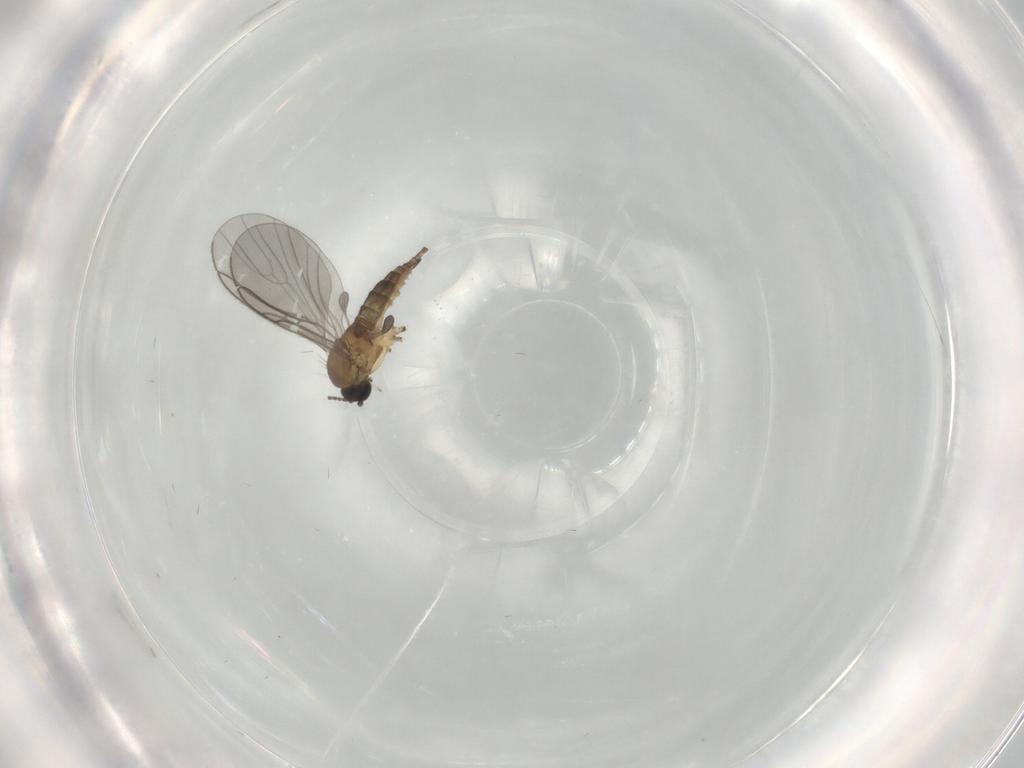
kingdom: Animalia
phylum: Arthropoda
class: Insecta
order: Diptera
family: Sciaridae
